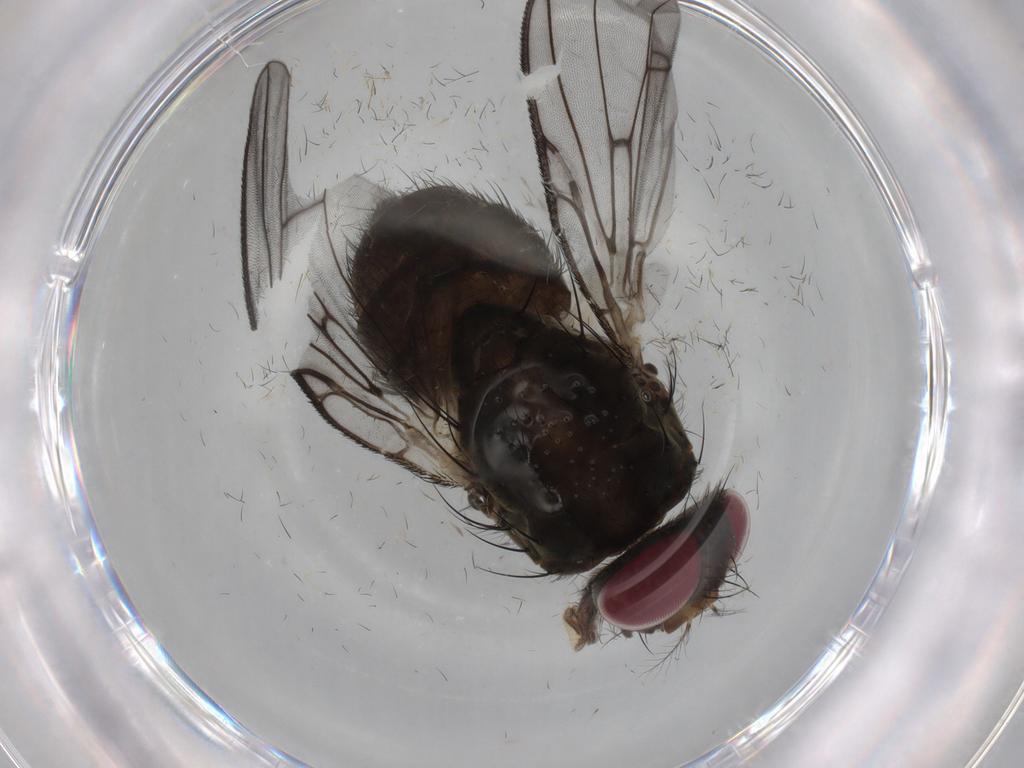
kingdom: Animalia
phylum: Arthropoda
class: Insecta
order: Diptera
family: Muscidae
